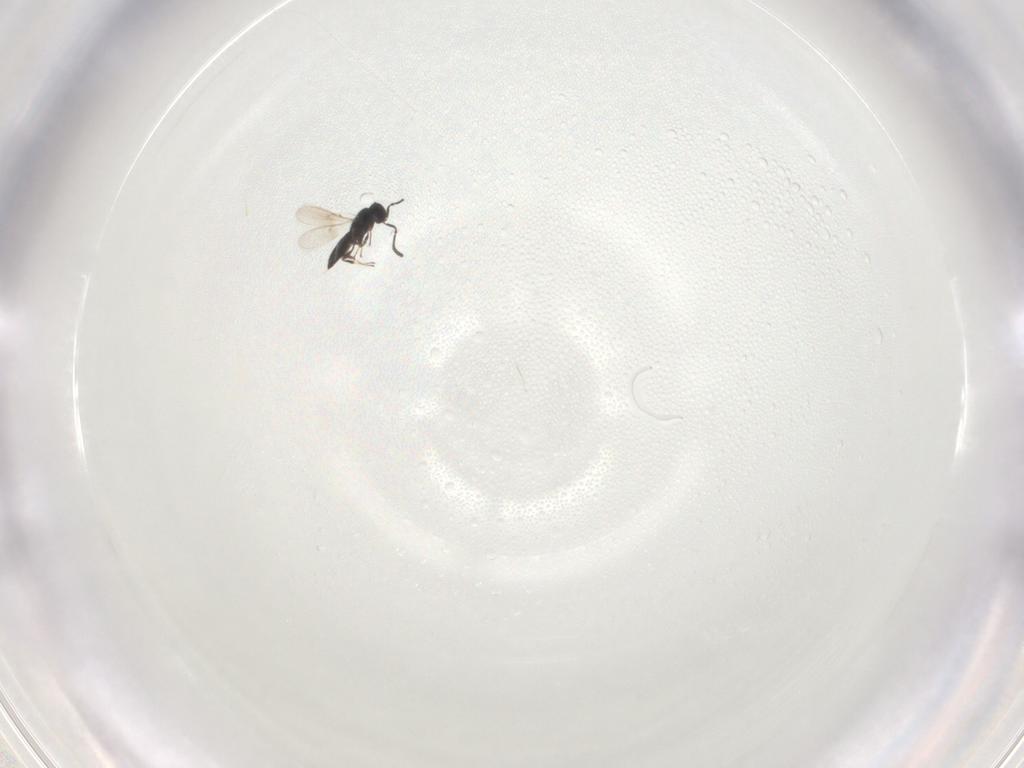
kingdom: Animalia
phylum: Arthropoda
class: Insecta
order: Hymenoptera
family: Scelionidae
